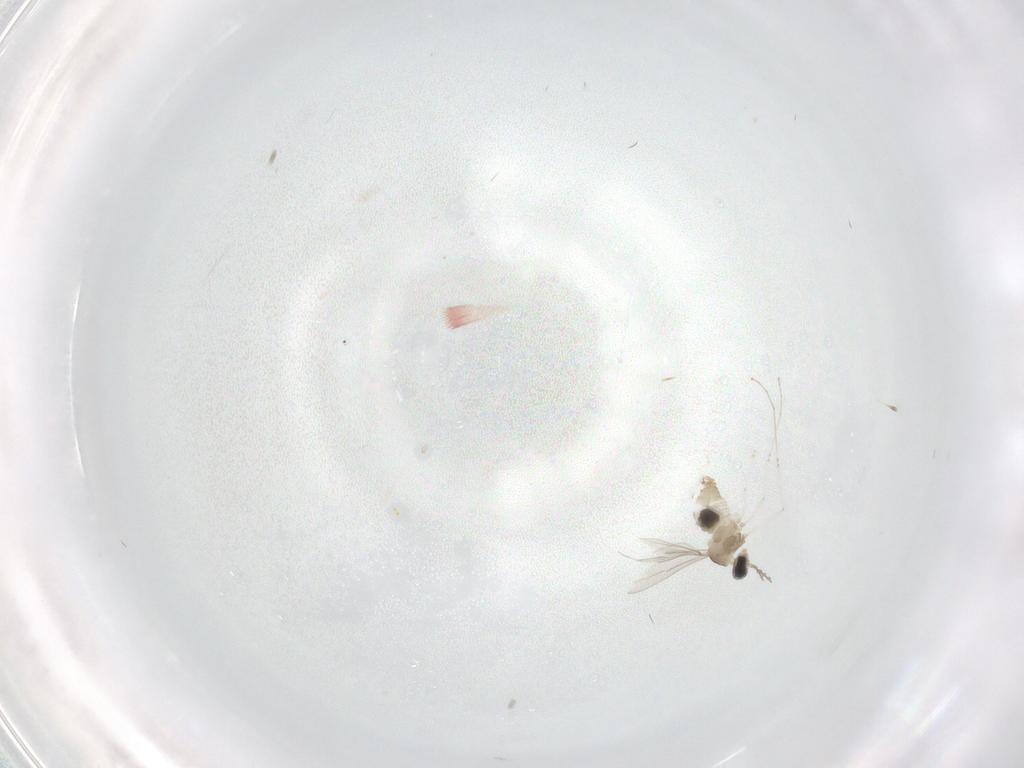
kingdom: Animalia
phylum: Arthropoda
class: Insecta
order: Diptera
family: Cecidomyiidae
